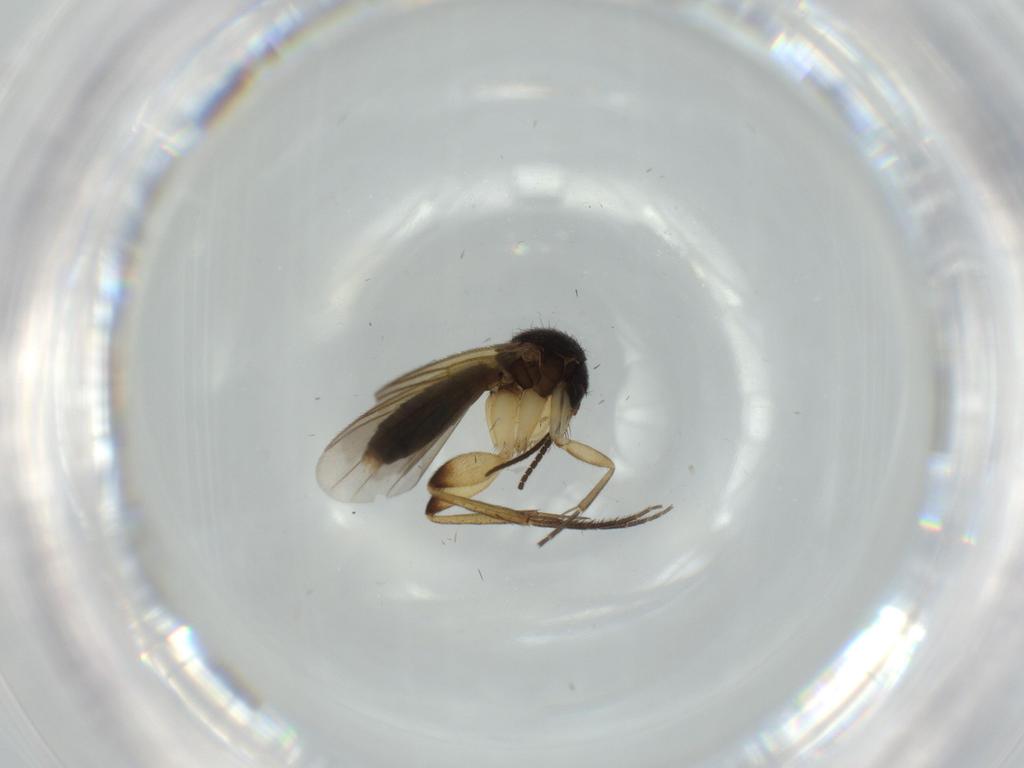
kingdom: Animalia
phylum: Arthropoda
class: Insecta
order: Diptera
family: Mycetophilidae
